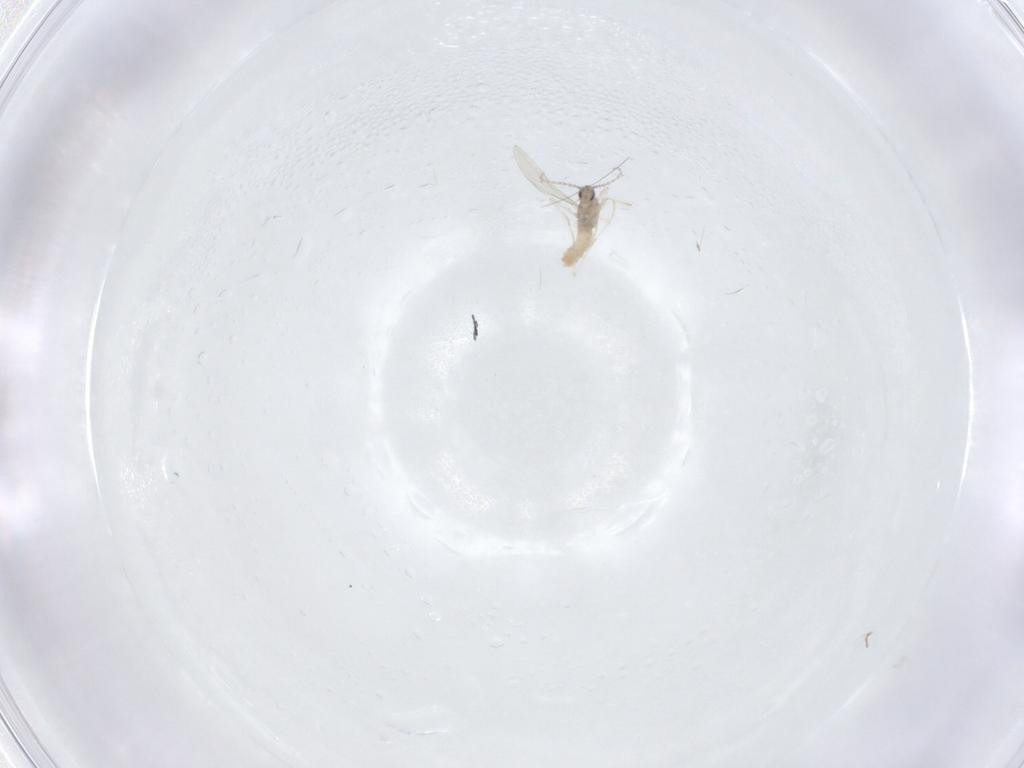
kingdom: Animalia
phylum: Arthropoda
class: Insecta
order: Diptera
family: Cecidomyiidae
